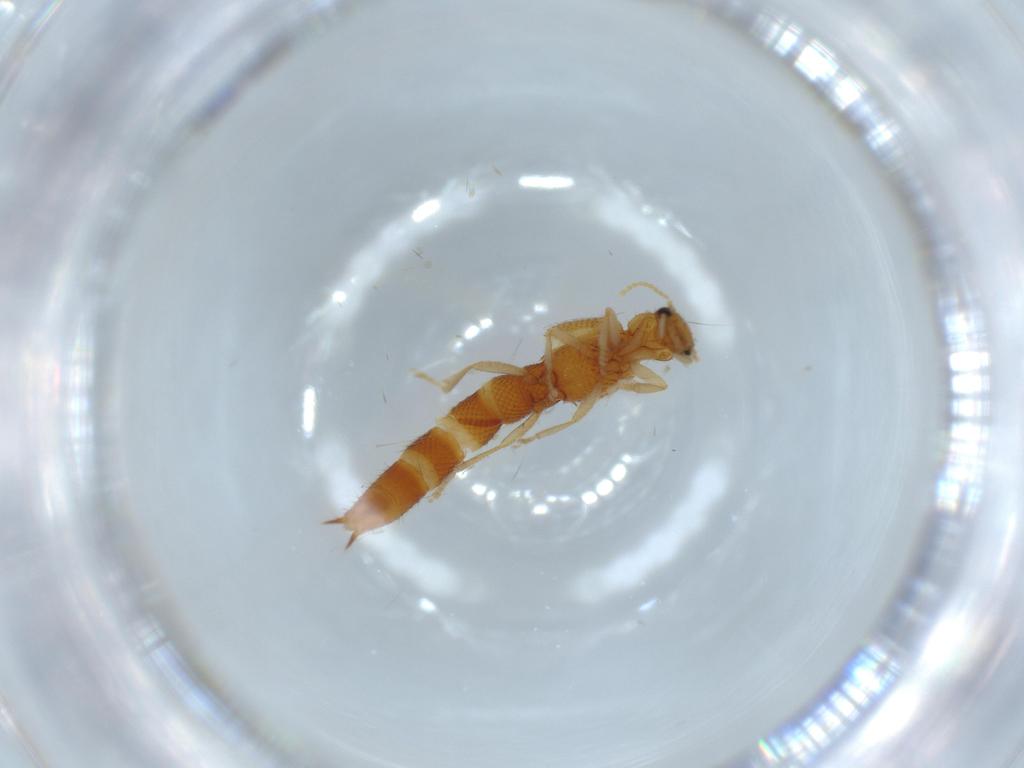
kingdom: Animalia
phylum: Arthropoda
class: Insecta
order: Coleoptera
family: Staphylinidae
